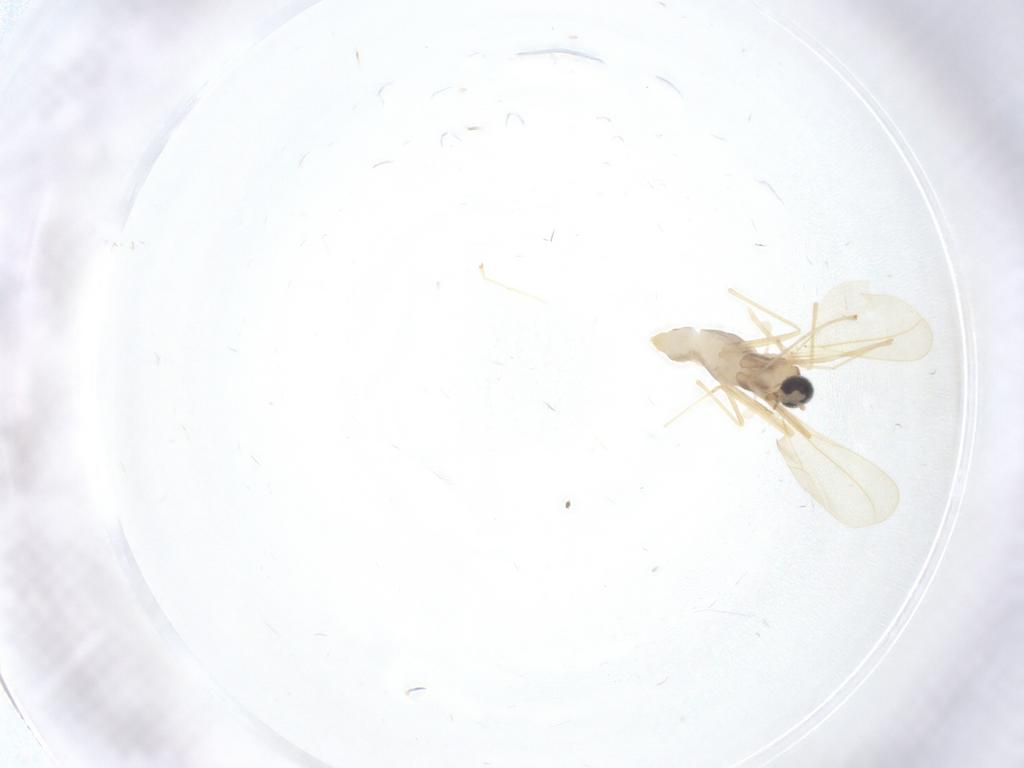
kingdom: Animalia
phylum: Arthropoda
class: Insecta
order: Diptera
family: Cecidomyiidae
